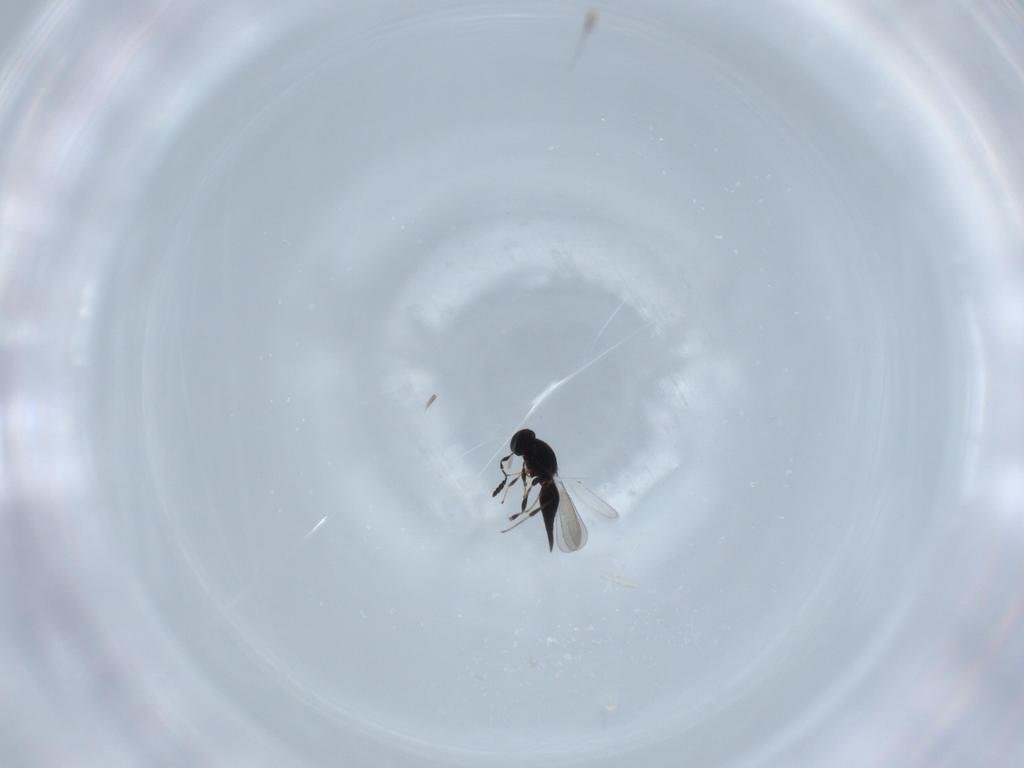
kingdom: Animalia
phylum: Arthropoda
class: Insecta
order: Hymenoptera
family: Platygastridae
